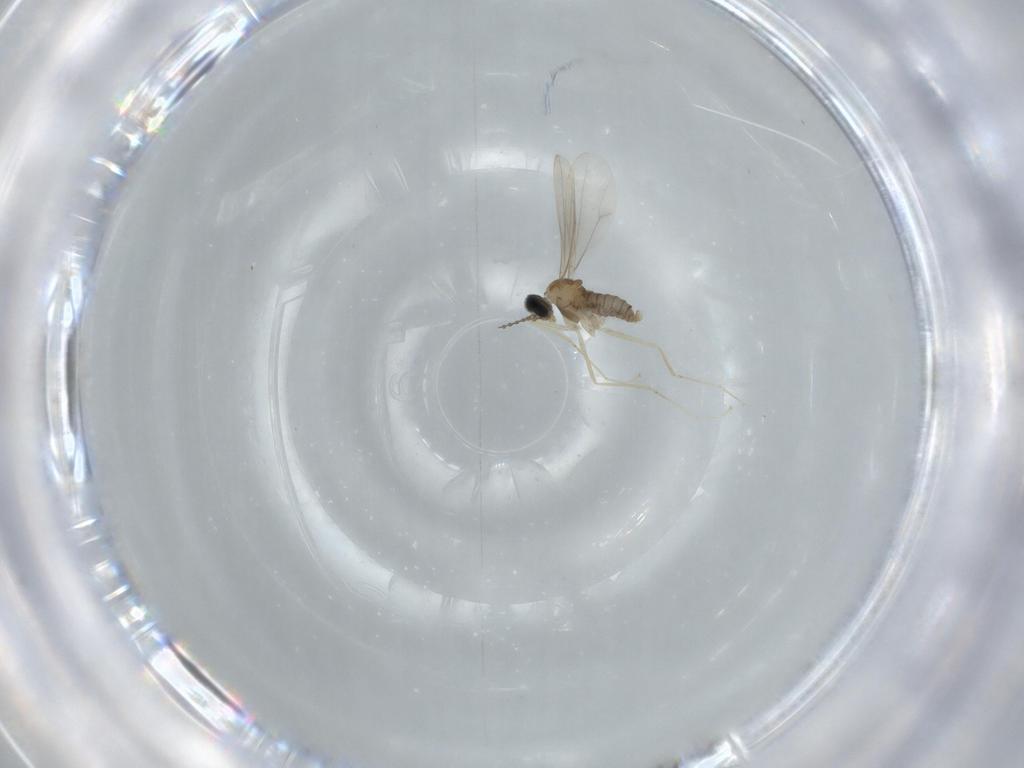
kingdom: Animalia
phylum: Arthropoda
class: Insecta
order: Diptera
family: Cecidomyiidae
